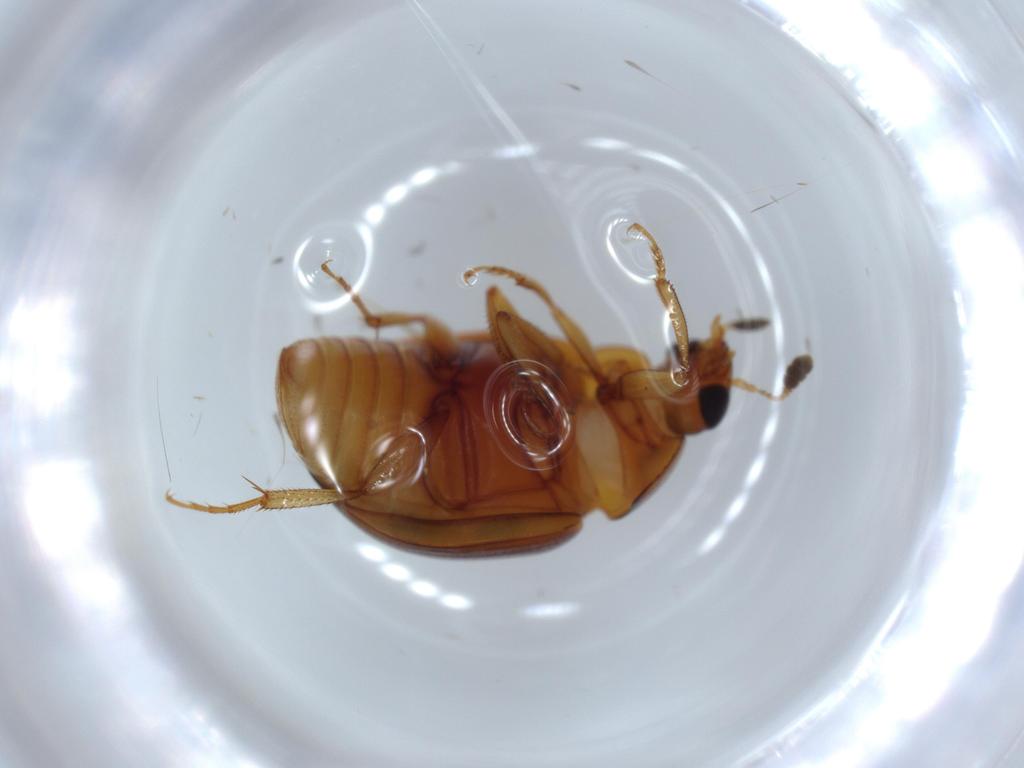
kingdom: Animalia
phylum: Arthropoda
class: Insecta
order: Coleoptera
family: Nitidulidae
